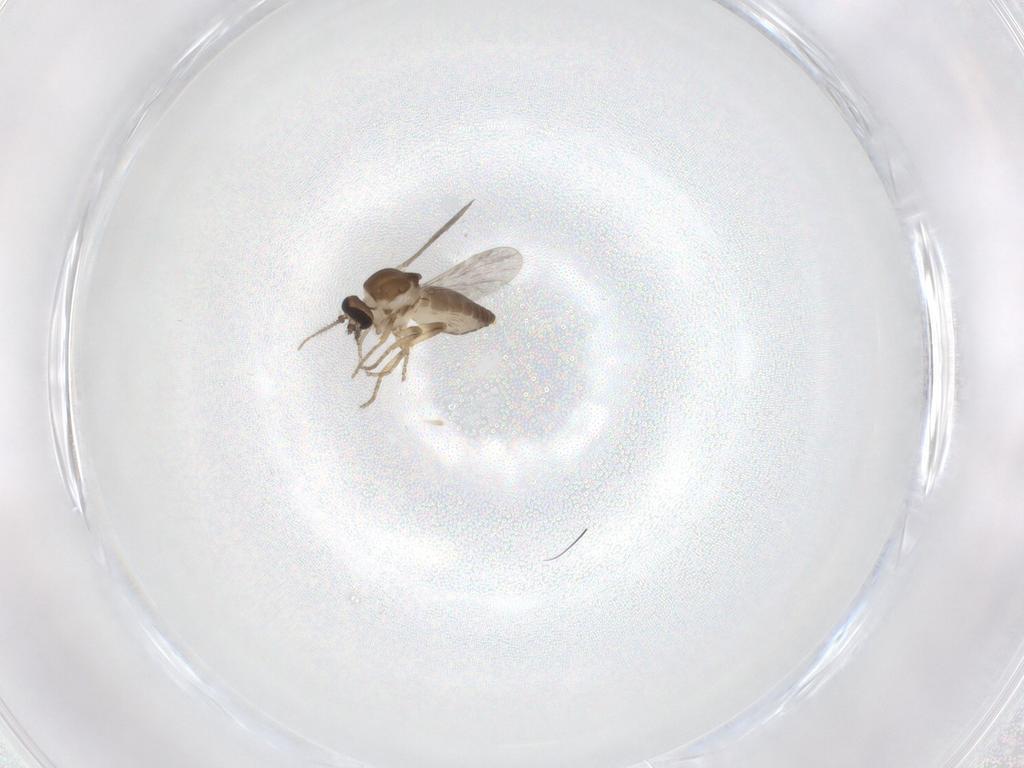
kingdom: Animalia
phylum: Arthropoda
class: Insecta
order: Diptera
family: Ceratopogonidae
